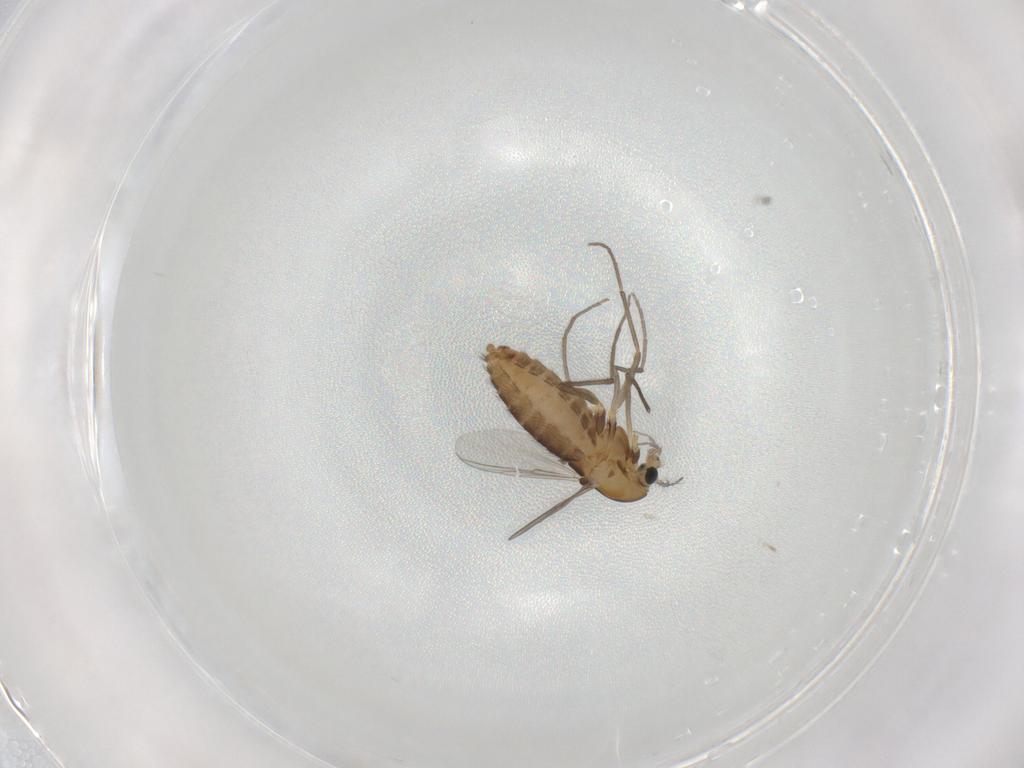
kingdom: Animalia
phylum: Arthropoda
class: Insecta
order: Diptera
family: Chironomidae
